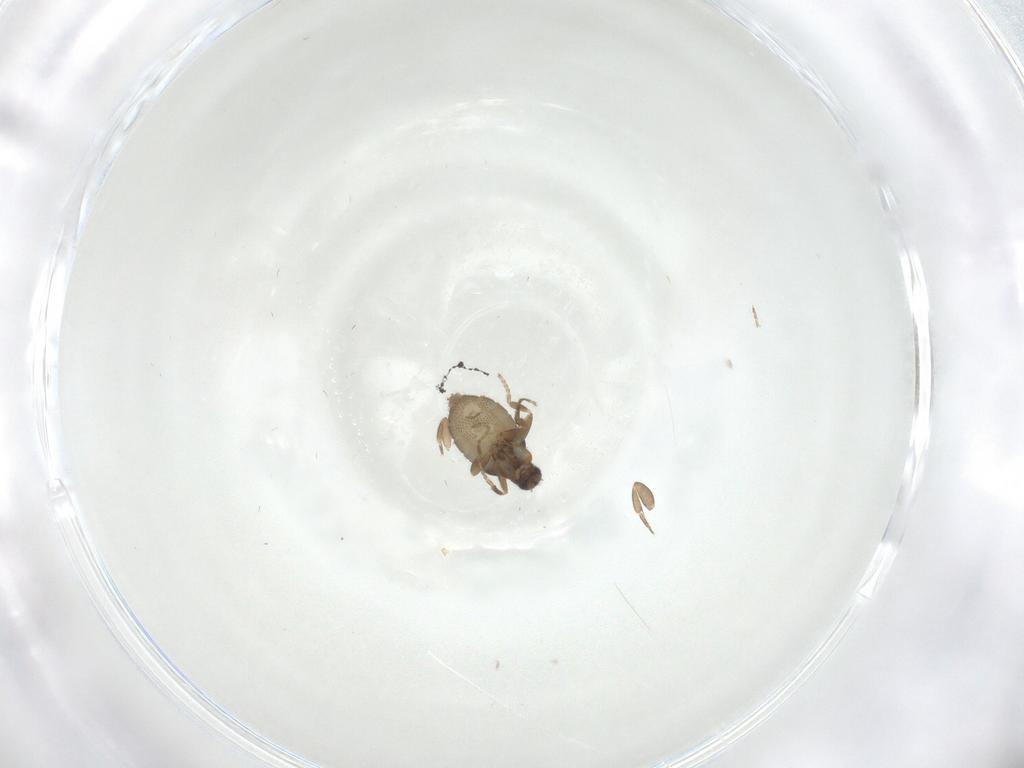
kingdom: Animalia
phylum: Arthropoda
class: Insecta
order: Diptera
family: Phoridae
